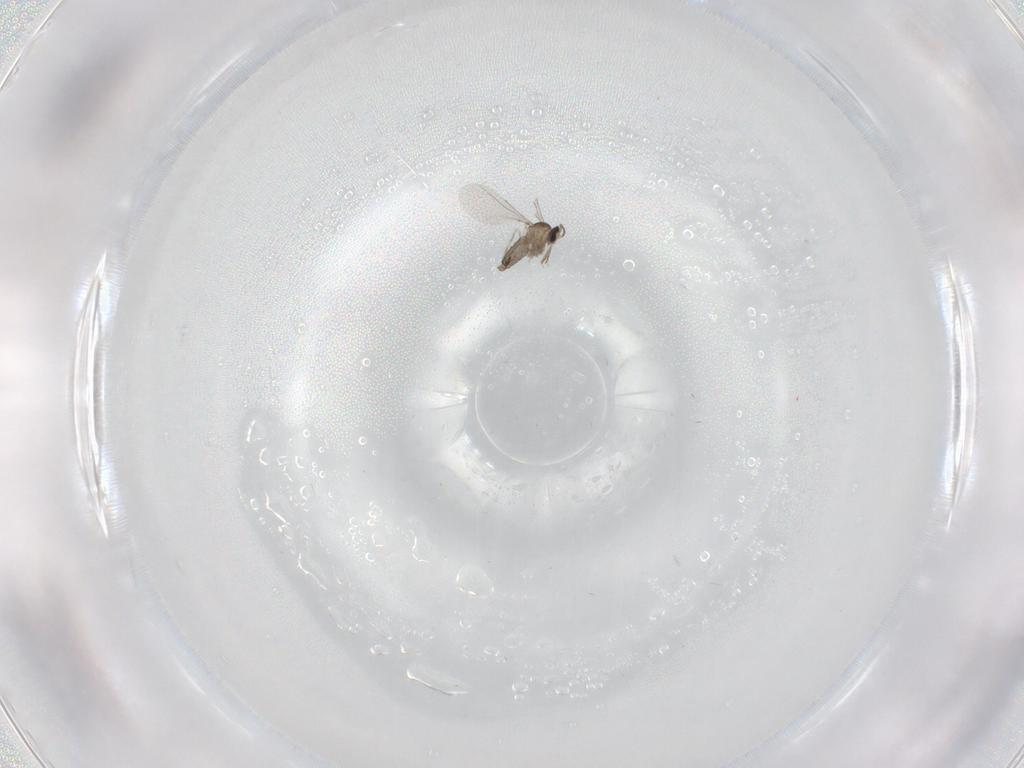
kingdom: Animalia
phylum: Arthropoda
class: Insecta
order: Diptera
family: Cecidomyiidae
